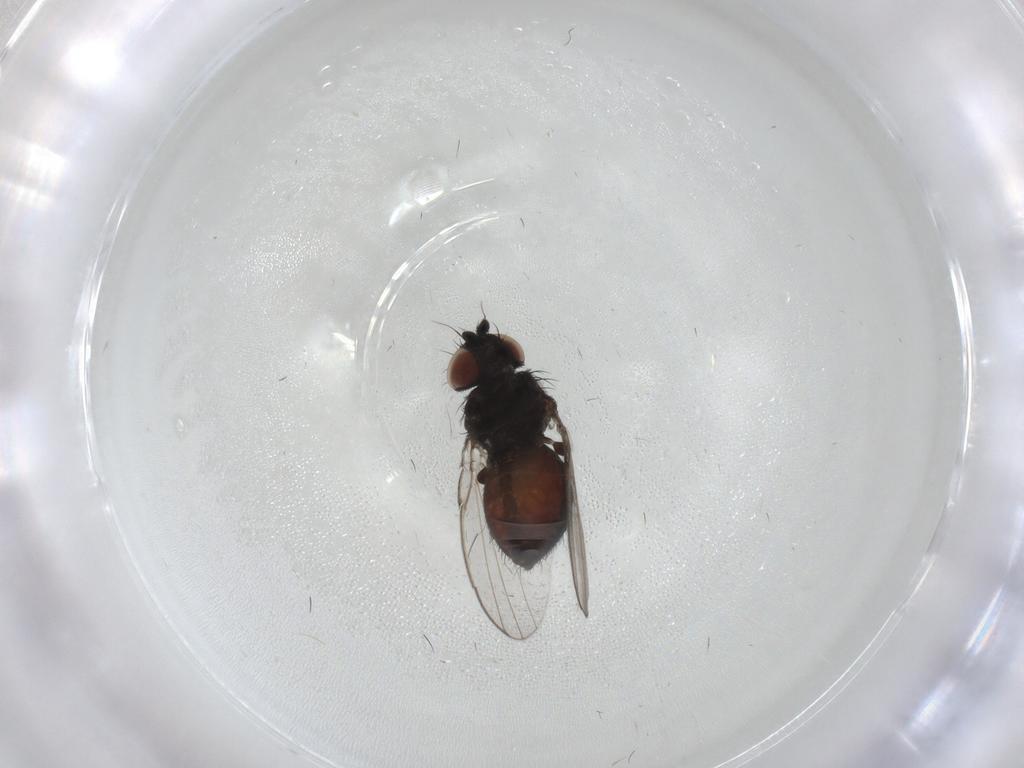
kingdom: Animalia
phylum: Arthropoda
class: Insecta
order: Diptera
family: Milichiidae
